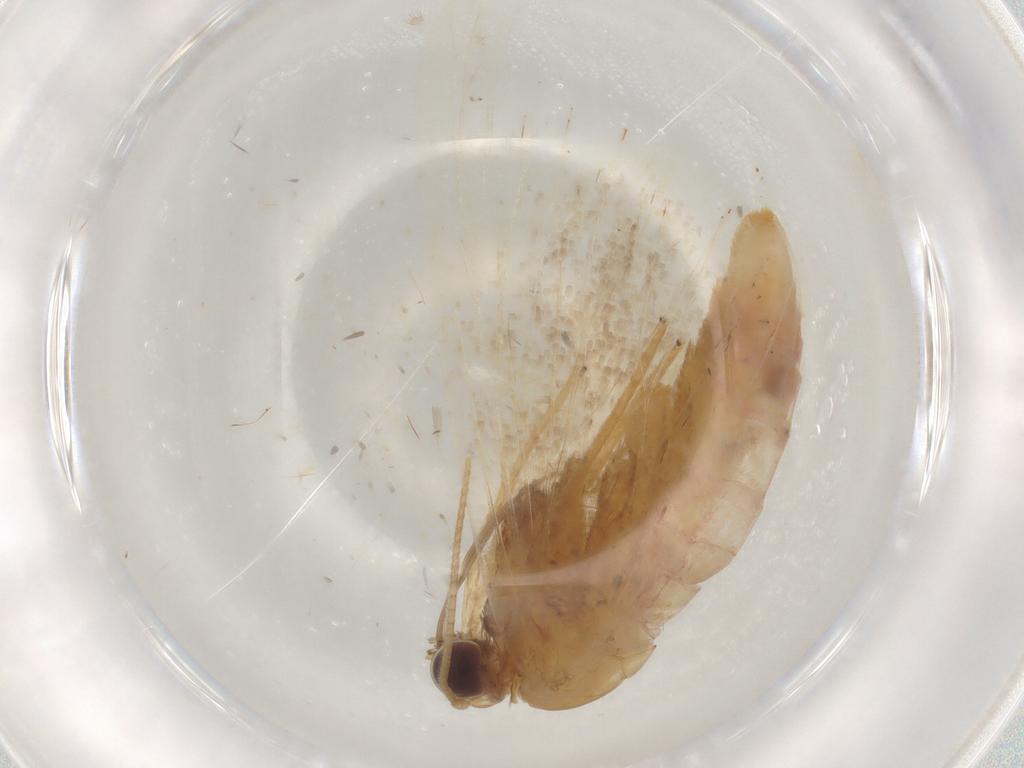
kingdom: Animalia
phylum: Arthropoda
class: Insecta
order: Lepidoptera
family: Geometridae
